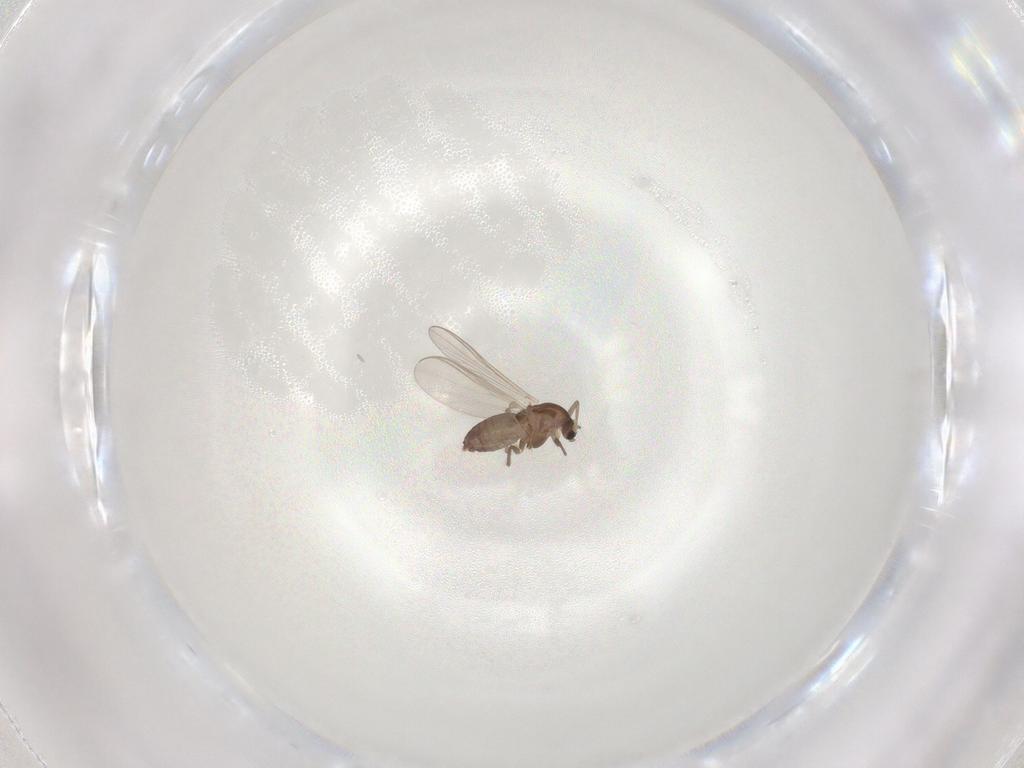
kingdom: Animalia
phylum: Arthropoda
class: Insecta
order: Diptera
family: Chironomidae
